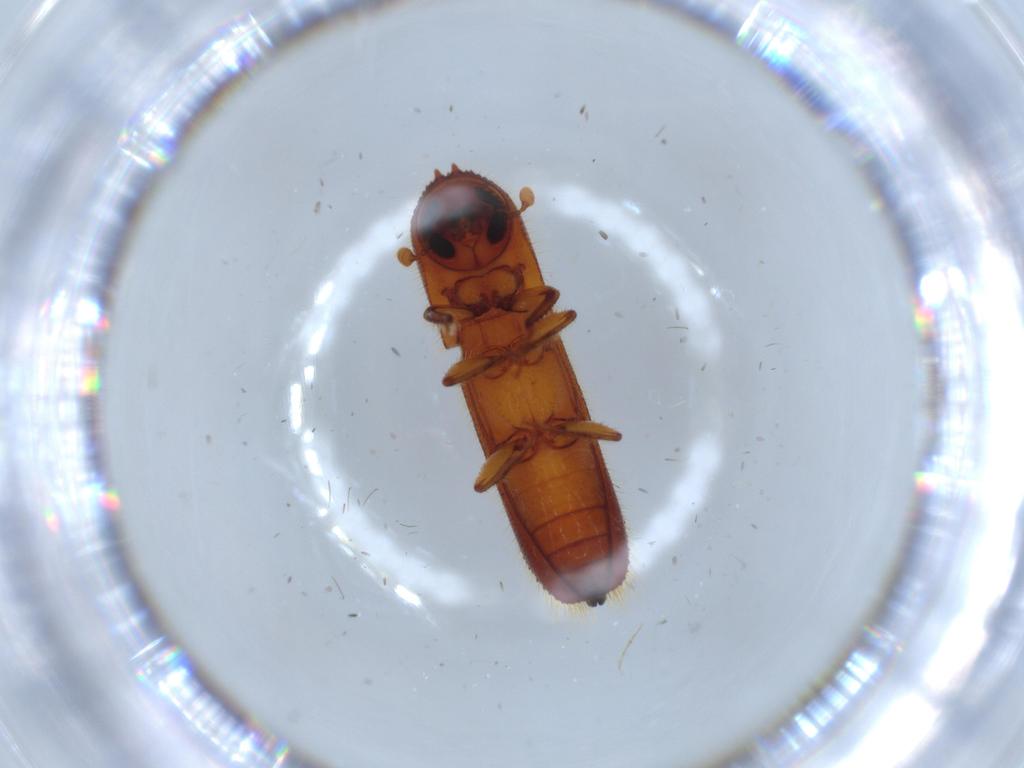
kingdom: Animalia
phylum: Arthropoda
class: Insecta
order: Coleoptera
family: Curculionidae
